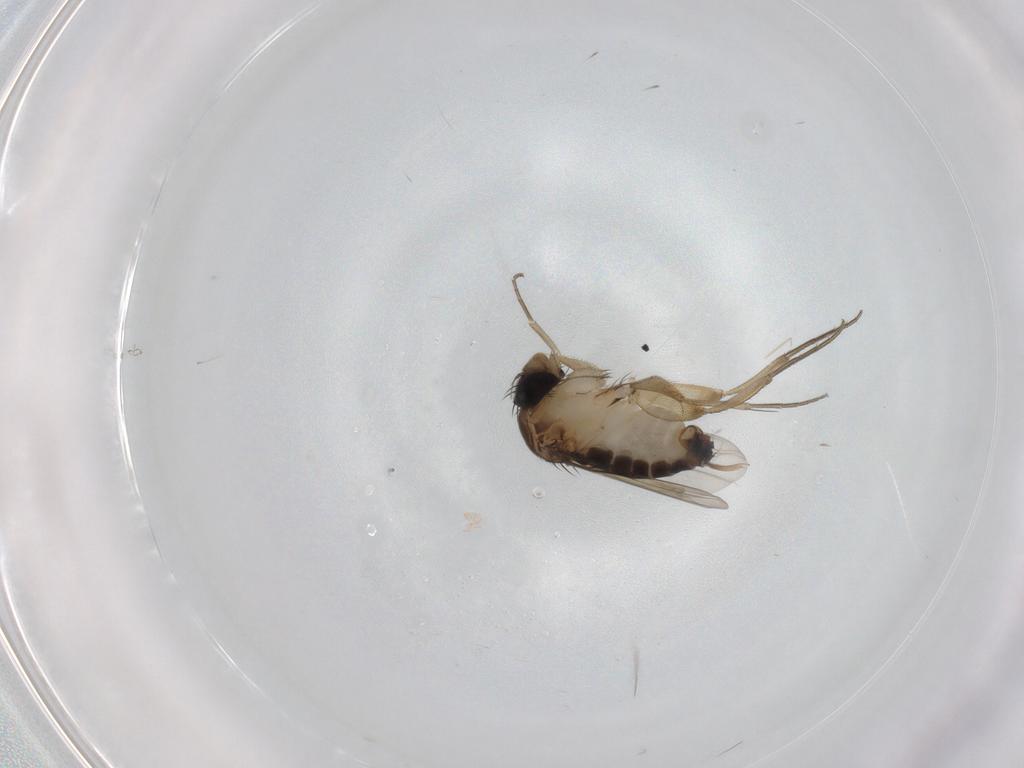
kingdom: Animalia
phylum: Arthropoda
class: Insecta
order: Diptera
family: Phoridae
